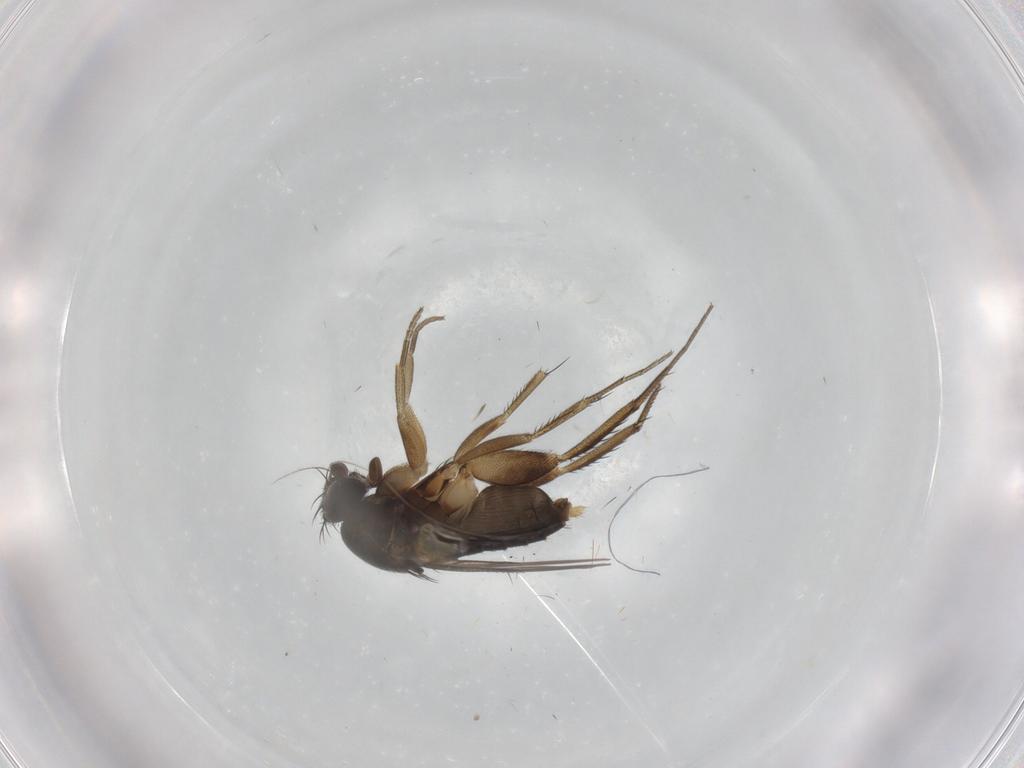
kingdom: Animalia
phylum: Arthropoda
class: Insecta
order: Diptera
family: Phoridae
